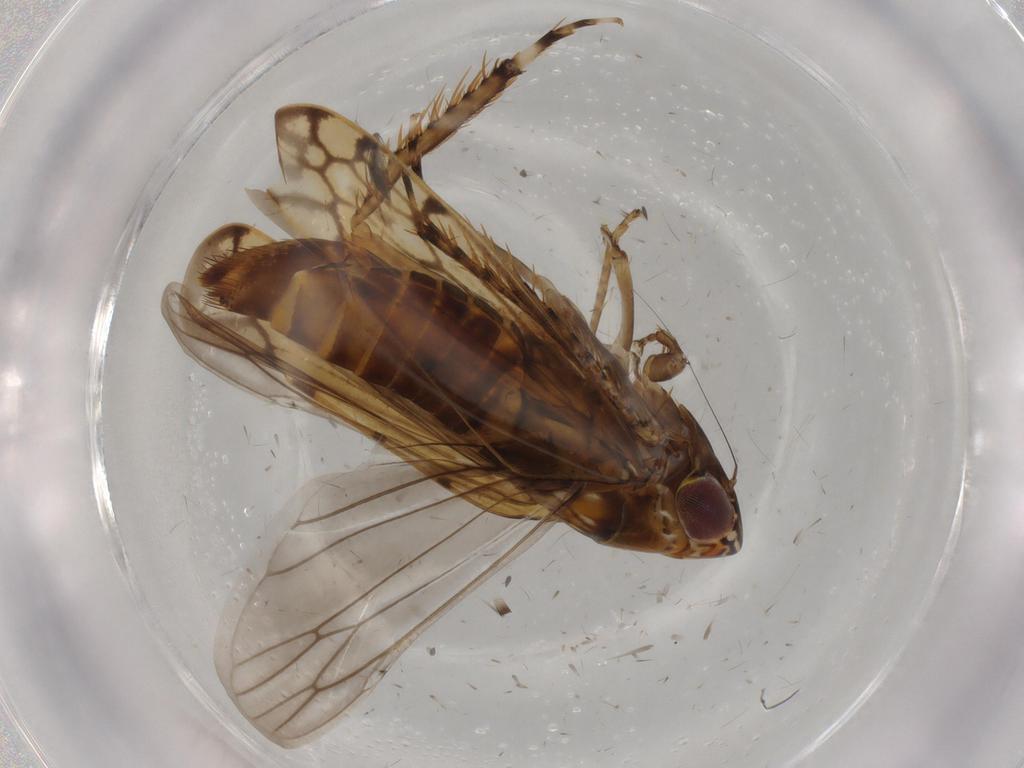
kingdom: Animalia
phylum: Arthropoda
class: Insecta
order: Hemiptera
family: Cicadellidae
